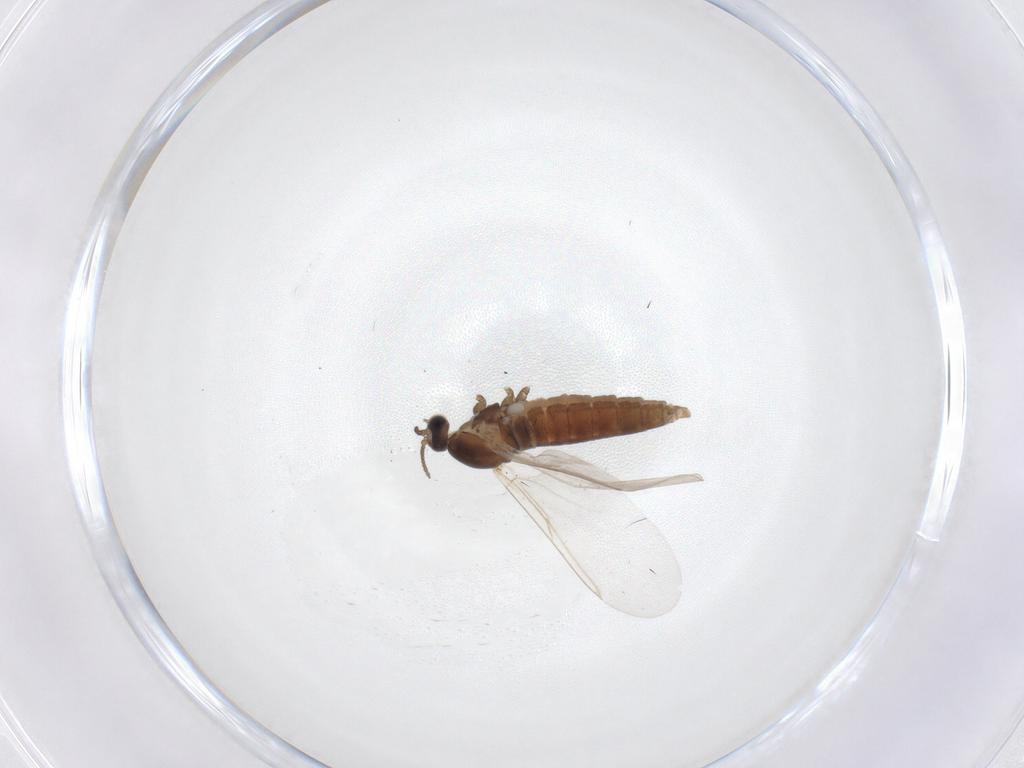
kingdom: Animalia
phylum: Arthropoda
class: Insecta
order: Diptera
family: Cecidomyiidae
